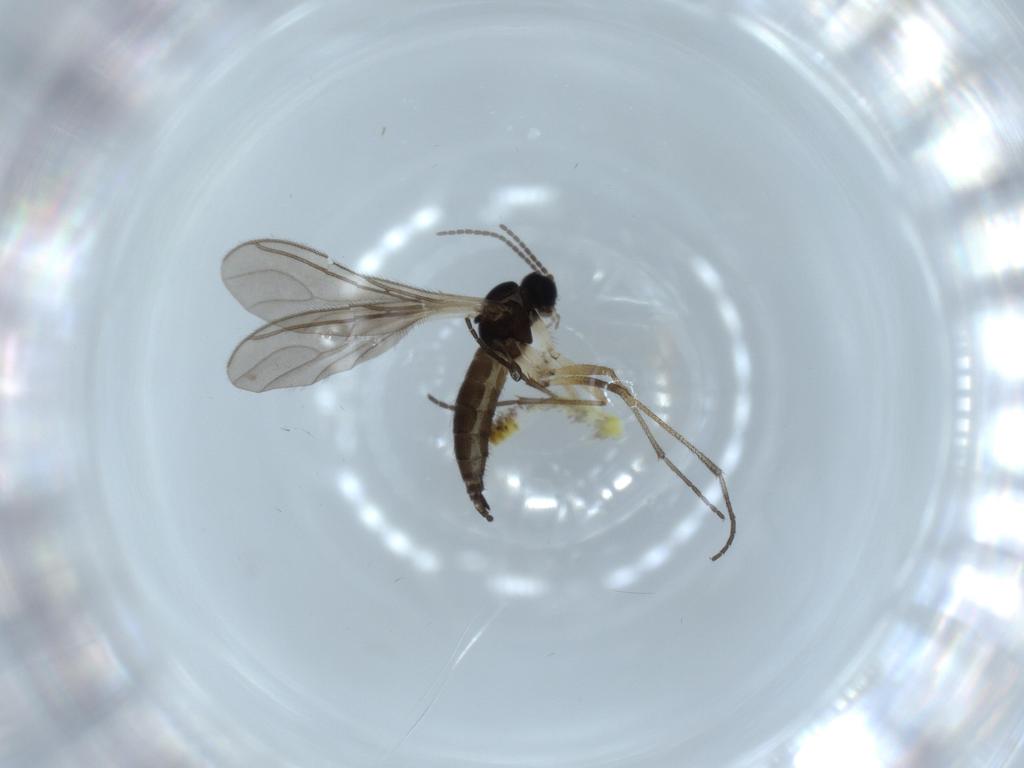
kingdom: Animalia
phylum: Arthropoda
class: Insecta
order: Diptera
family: Sciaridae
